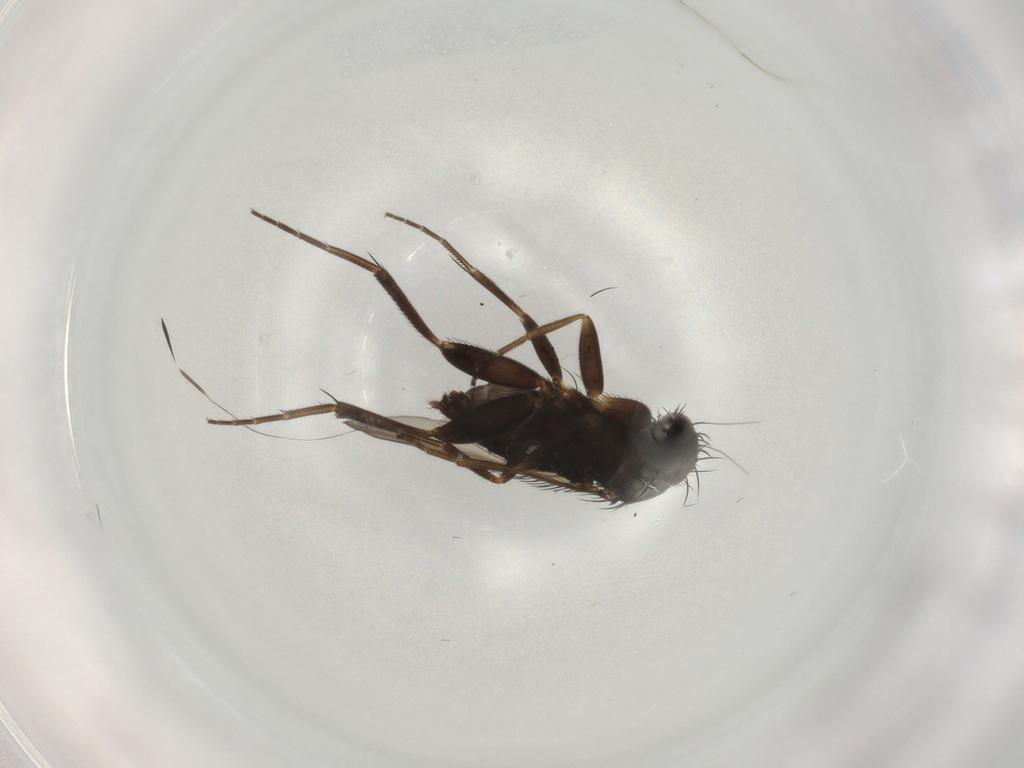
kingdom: Animalia
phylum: Arthropoda
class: Insecta
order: Diptera
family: Phoridae
